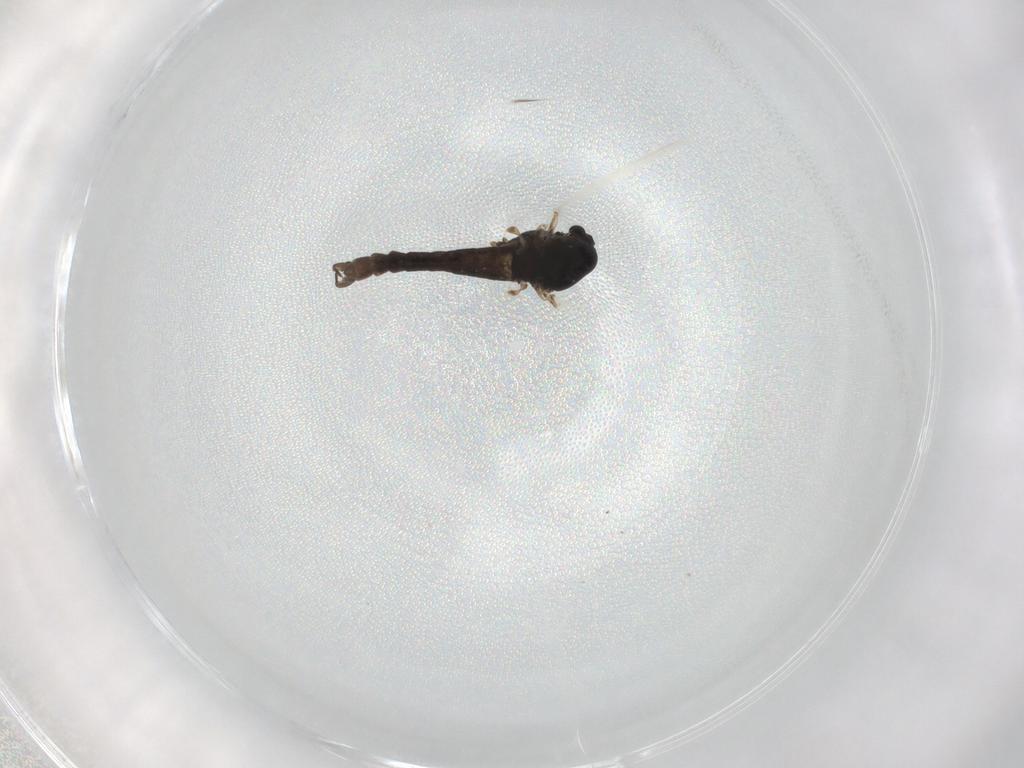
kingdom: Animalia
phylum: Arthropoda
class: Insecta
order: Diptera
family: Chironomidae
